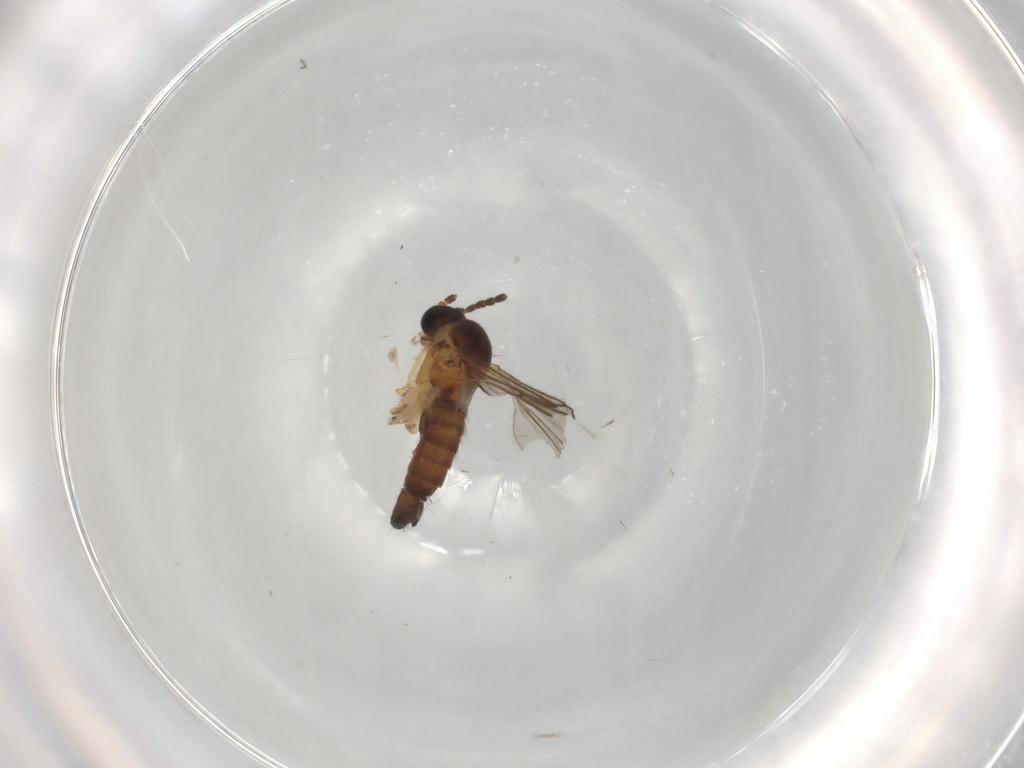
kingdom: Animalia
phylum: Arthropoda
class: Insecta
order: Diptera
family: Sciaridae
